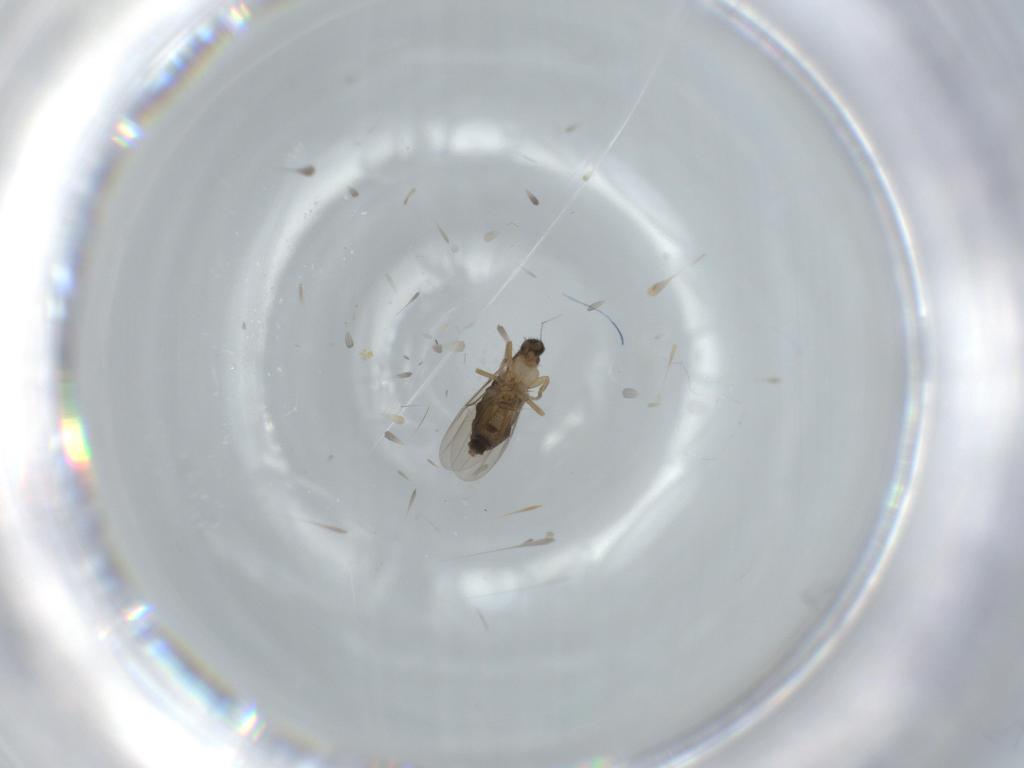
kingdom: Animalia
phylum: Arthropoda
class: Insecta
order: Diptera
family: Phoridae
